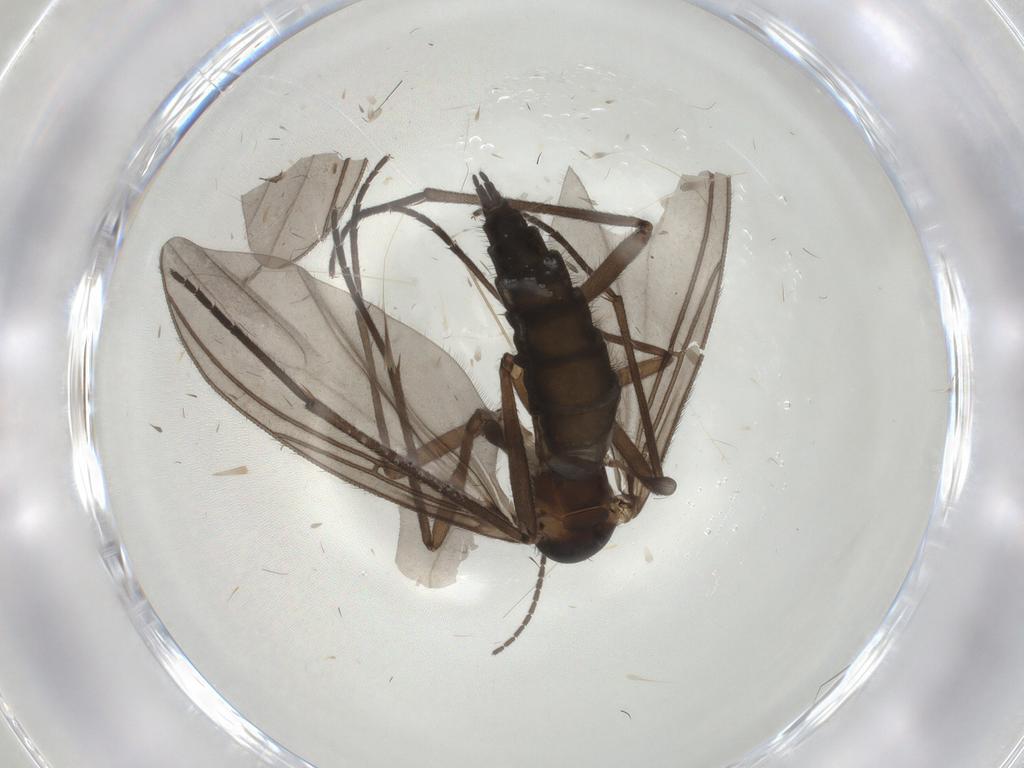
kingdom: Animalia
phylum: Arthropoda
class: Insecta
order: Diptera
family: Sciaridae
